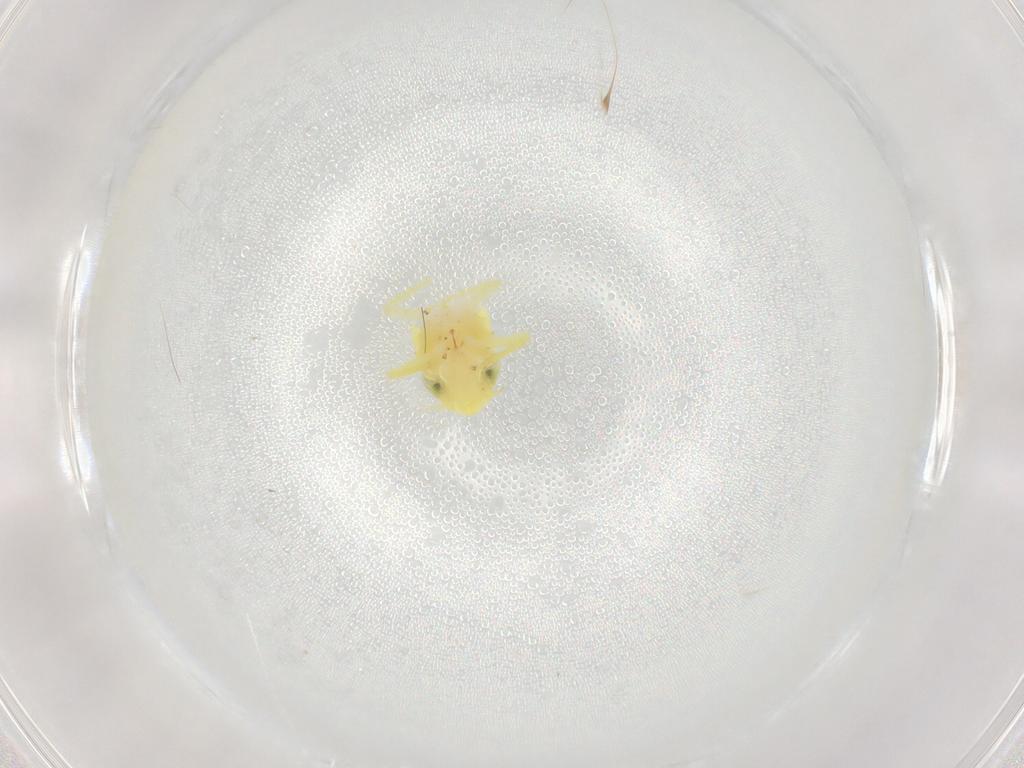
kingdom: Animalia
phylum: Arthropoda
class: Insecta
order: Hemiptera
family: Cicadellidae
